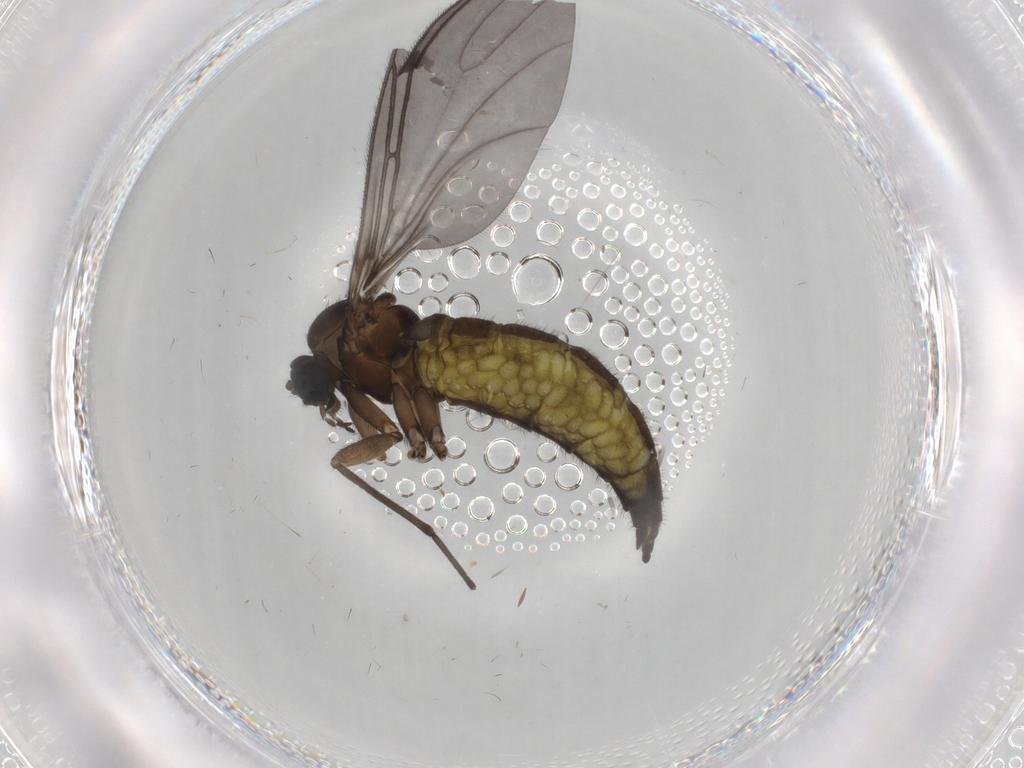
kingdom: Animalia
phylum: Arthropoda
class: Insecta
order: Diptera
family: Sciaridae
